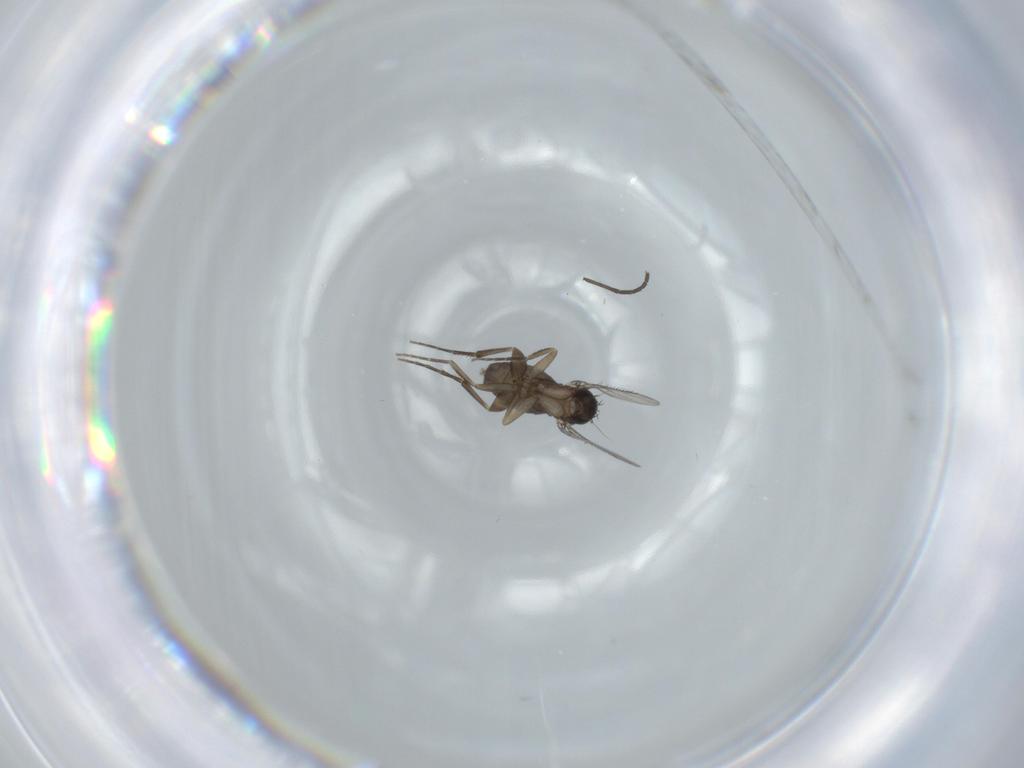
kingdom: Animalia
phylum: Arthropoda
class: Insecta
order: Diptera
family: Phoridae
